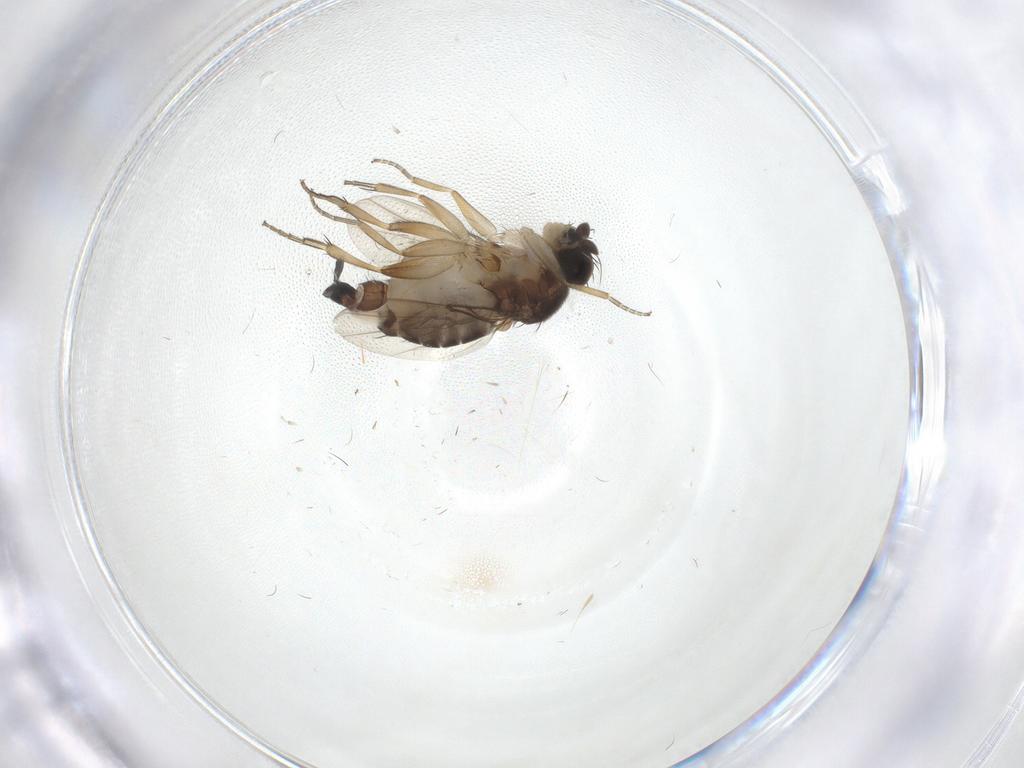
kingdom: Animalia
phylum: Arthropoda
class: Insecta
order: Diptera
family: Phoridae
